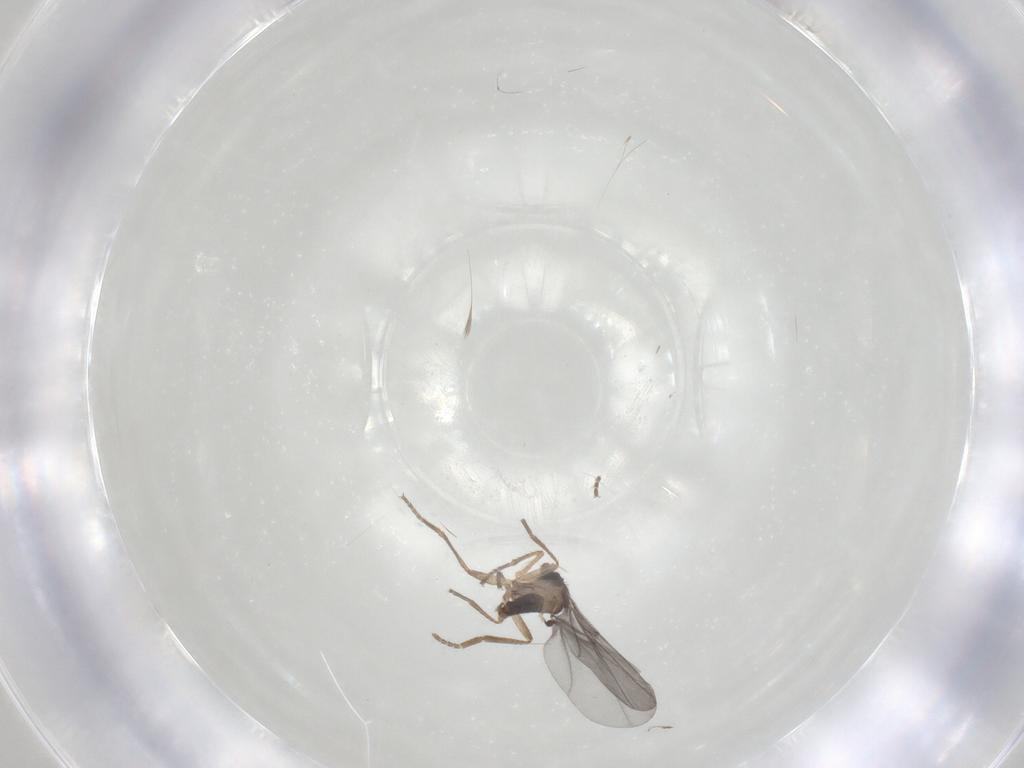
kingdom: Animalia
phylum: Arthropoda
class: Insecta
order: Diptera
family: Phoridae
